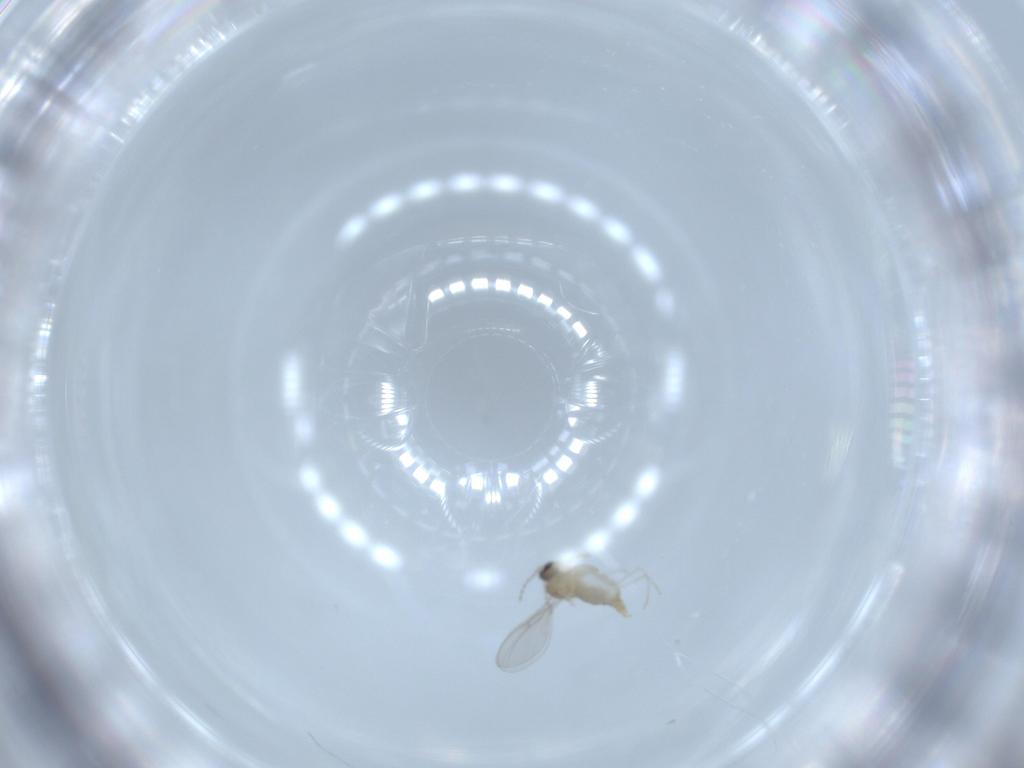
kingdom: Animalia
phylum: Arthropoda
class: Insecta
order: Diptera
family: Cecidomyiidae
